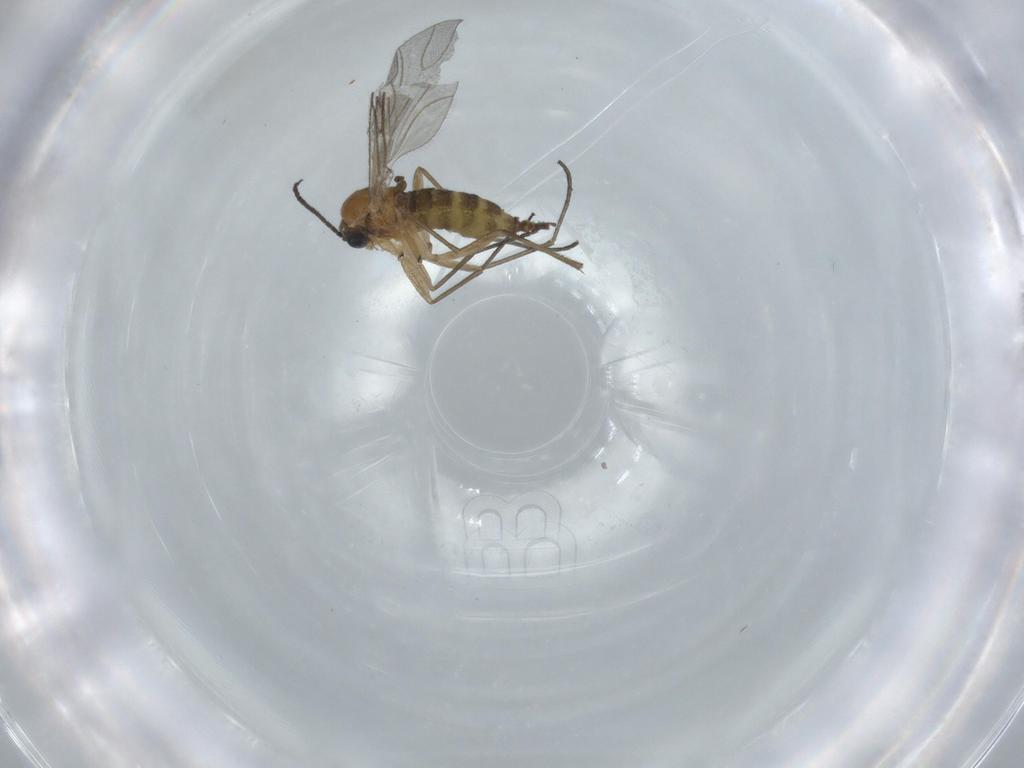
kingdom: Animalia
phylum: Arthropoda
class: Insecta
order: Diptera
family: Sciaridae
